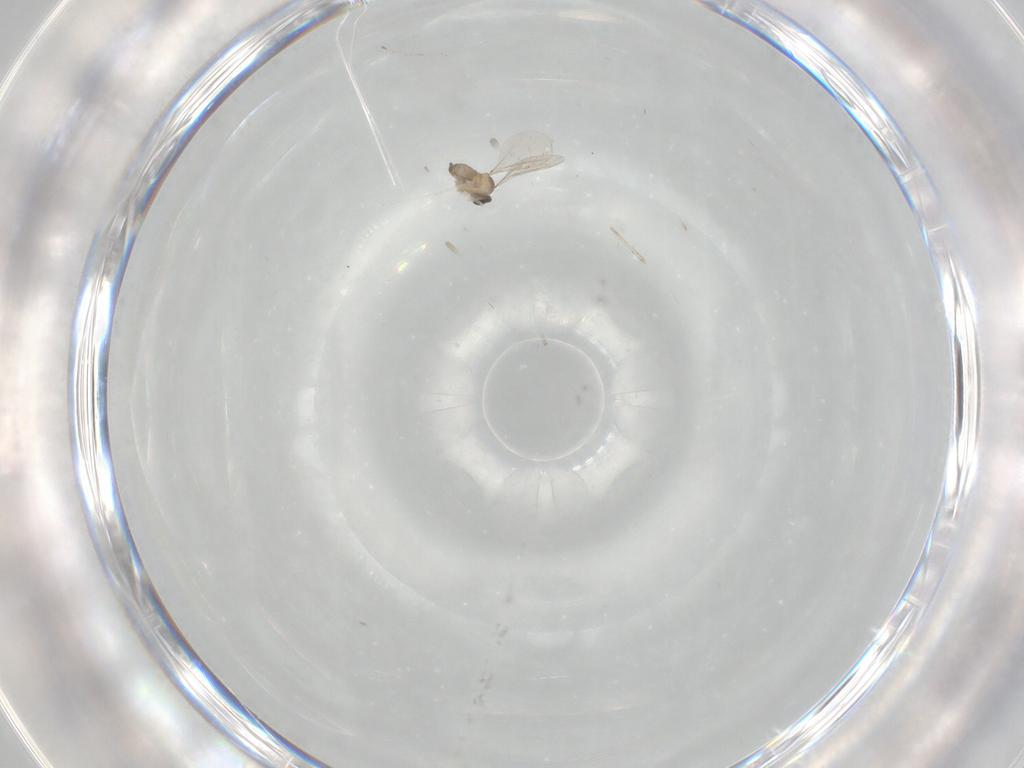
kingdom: Animalia
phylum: Arthropoda
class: Insecta
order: Diptera
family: Cecidomyiidae
